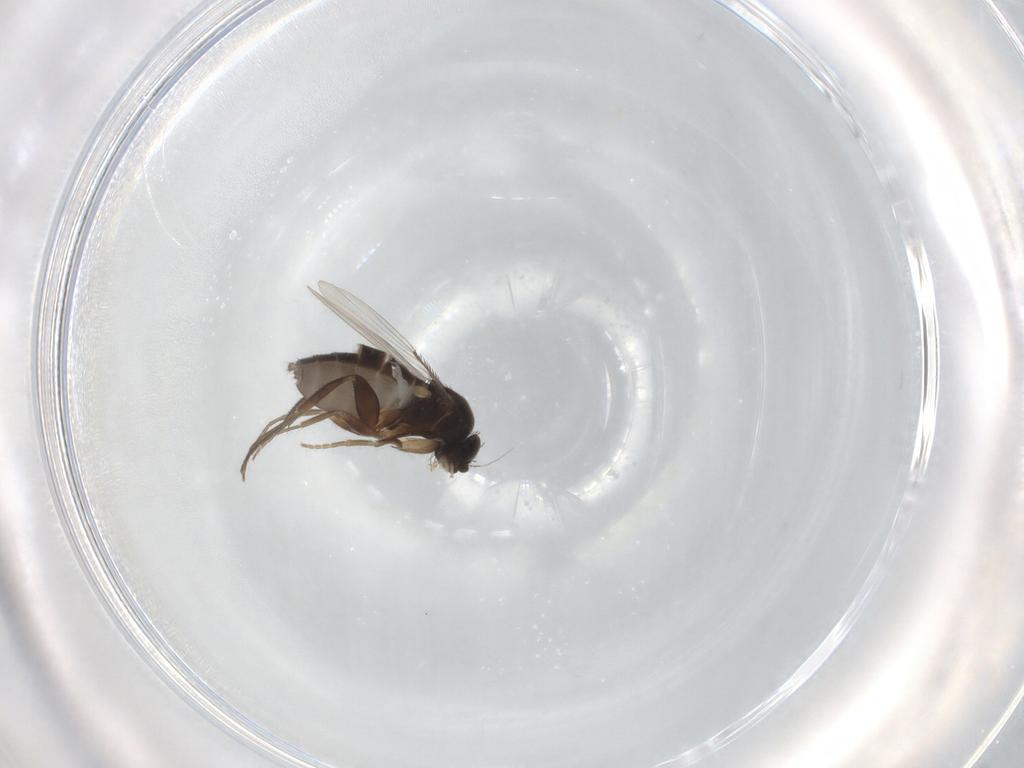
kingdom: Animalia
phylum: Arthropoda
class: Insecta
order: Diptera
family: Phoridae
